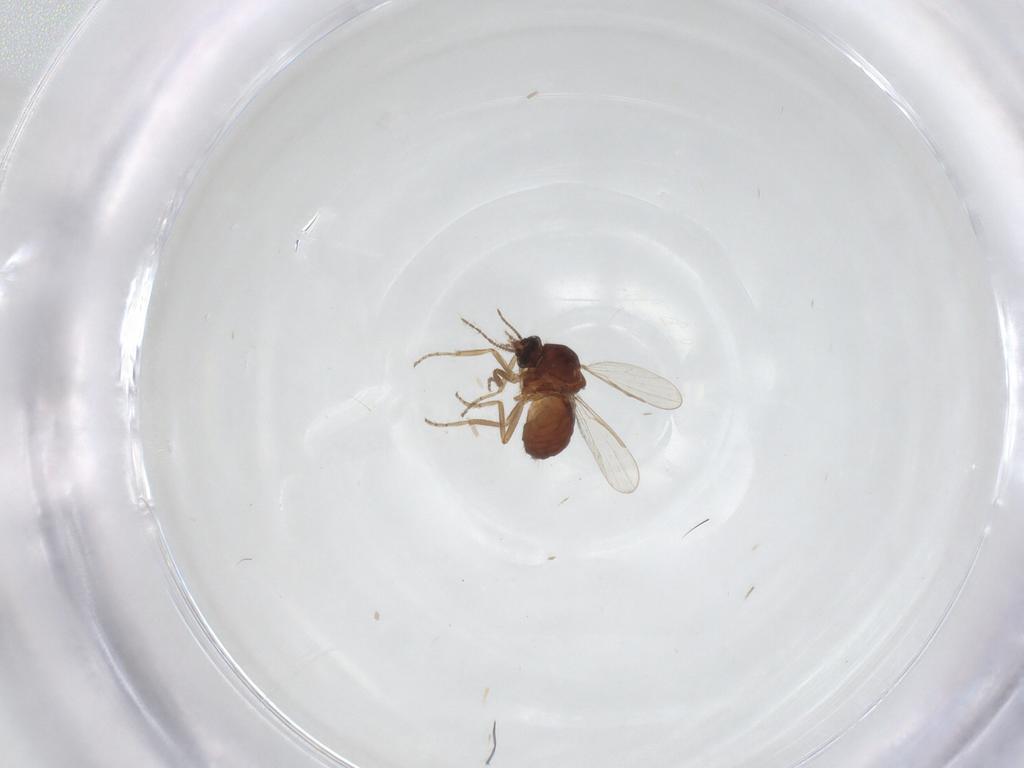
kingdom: Animalia
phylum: Arthropoda
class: Insecta
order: Diptera
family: Ceratopogonidae
